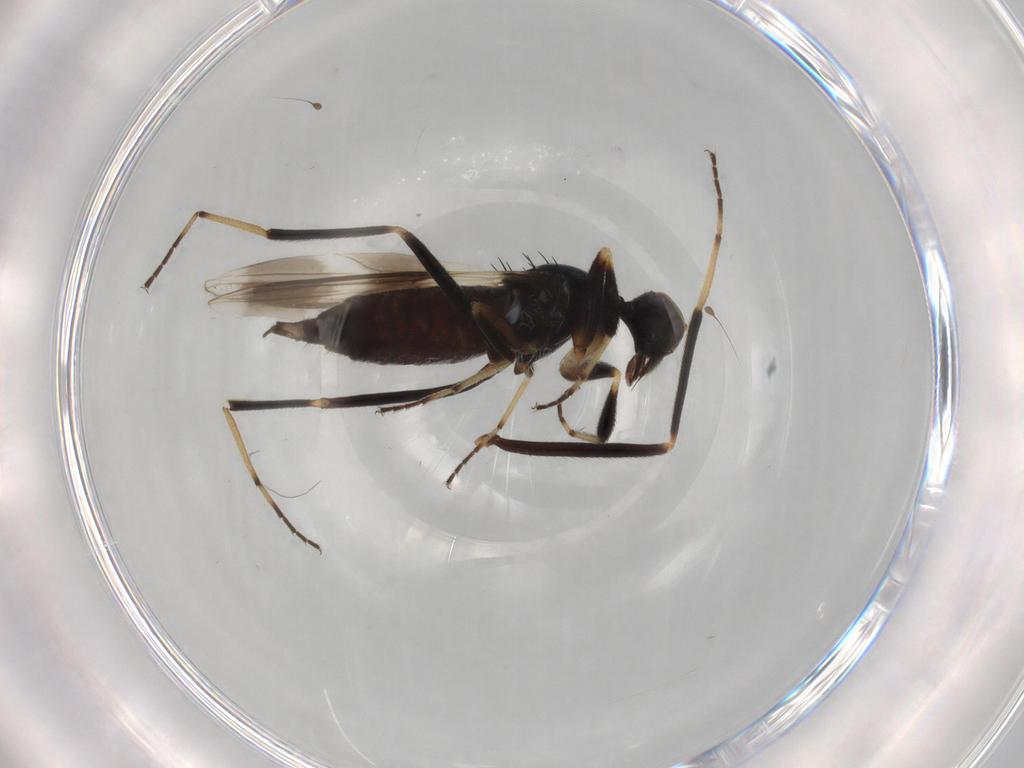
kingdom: Animalia
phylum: Arthropoda
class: Insecta
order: Diptera
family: Hybotidae
